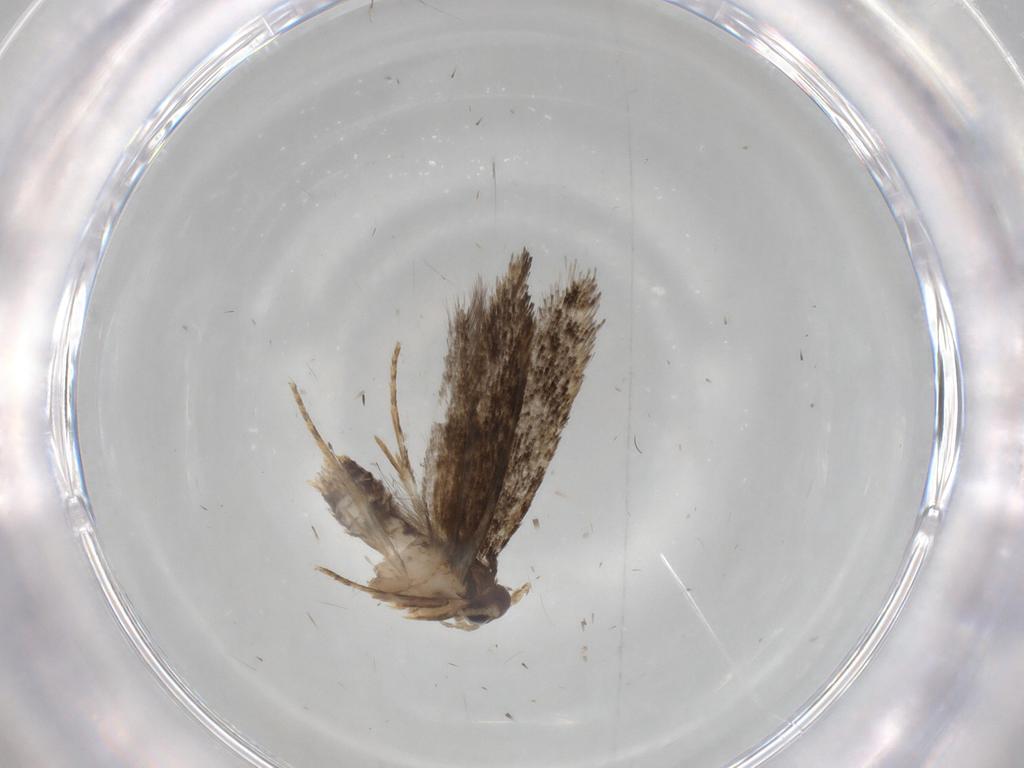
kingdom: Animalia
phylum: Arthropoda
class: Insecta
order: Lepidoptera
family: Tineidae
